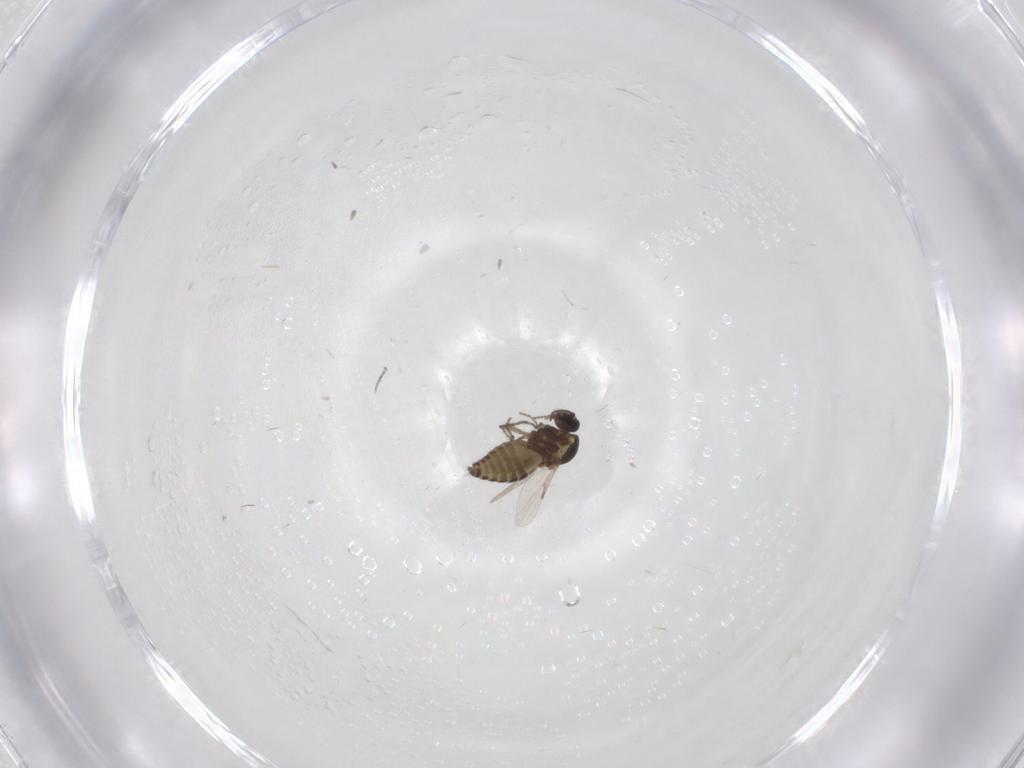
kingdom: Animalia
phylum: Arthropoda
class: Insecta
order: Diptera
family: Ceratopogonidae
